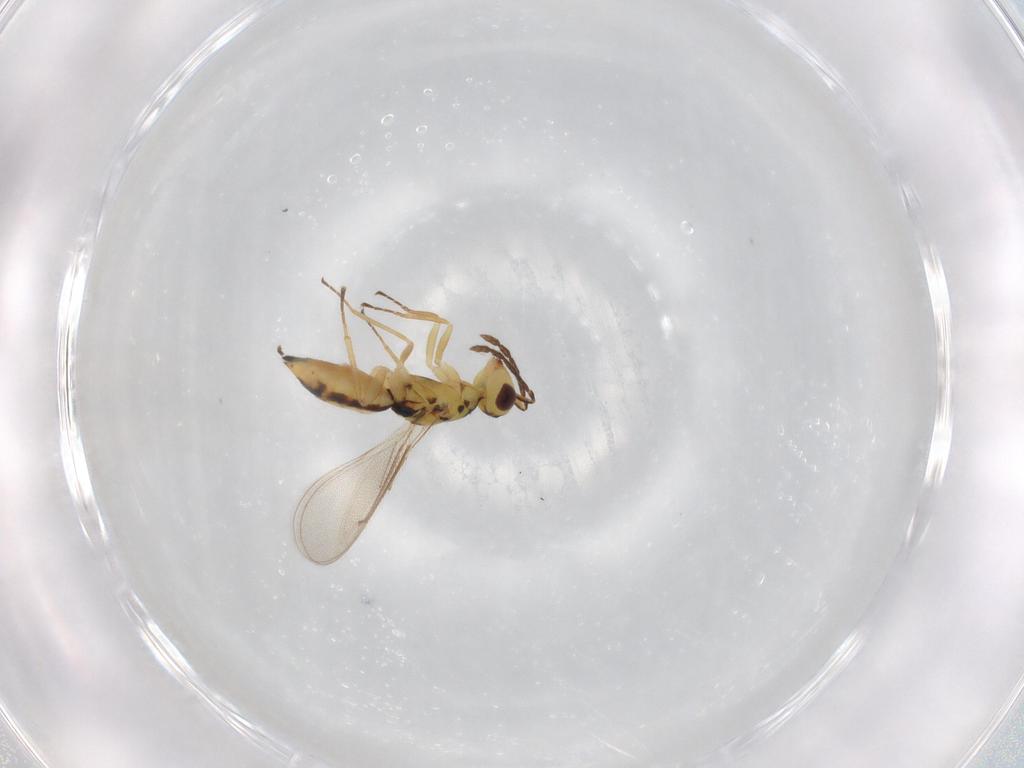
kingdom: Animalia
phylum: Arthropoda
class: Insecta
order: Hymenoptera
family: Eulophidae
